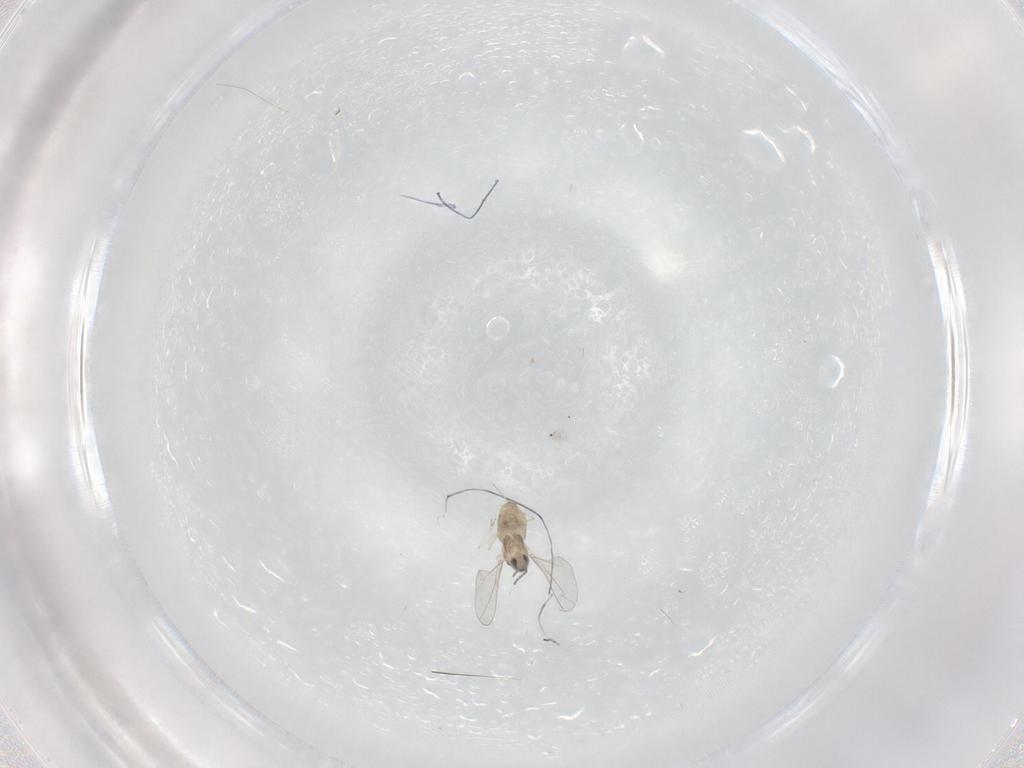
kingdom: Animalia
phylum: Arthropoda
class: Insecta
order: Diptera
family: Cecidomyiidae
